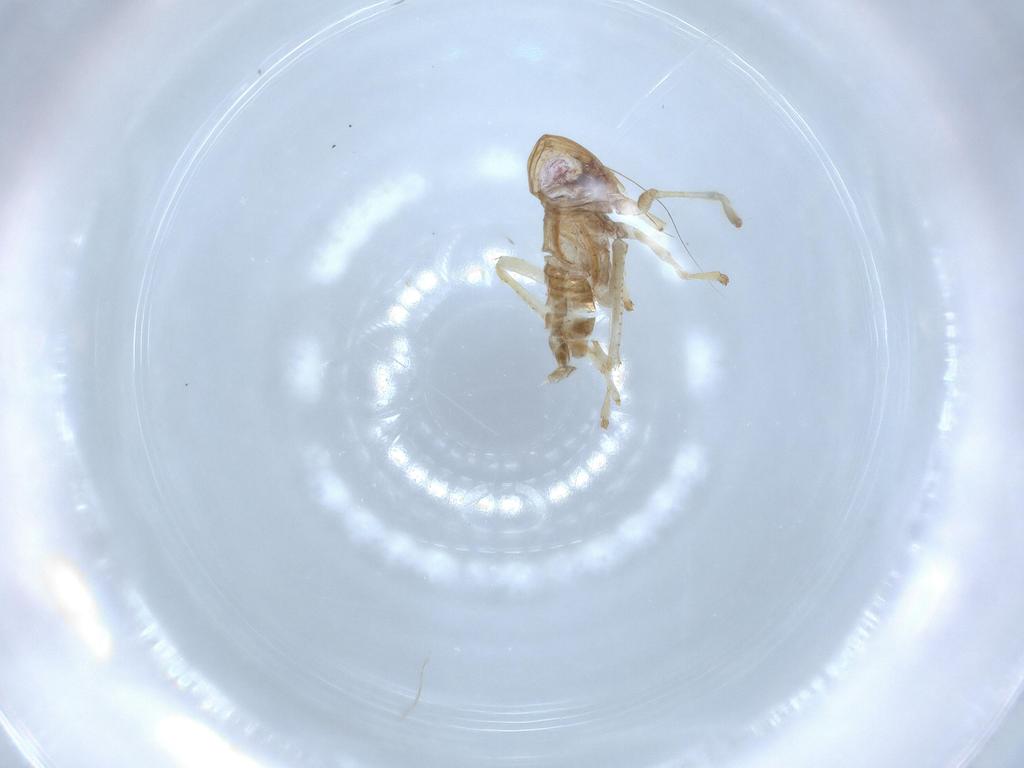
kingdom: Animalia
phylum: Arthropoda
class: Insecta
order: Hemiptera
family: Cicadellidae
